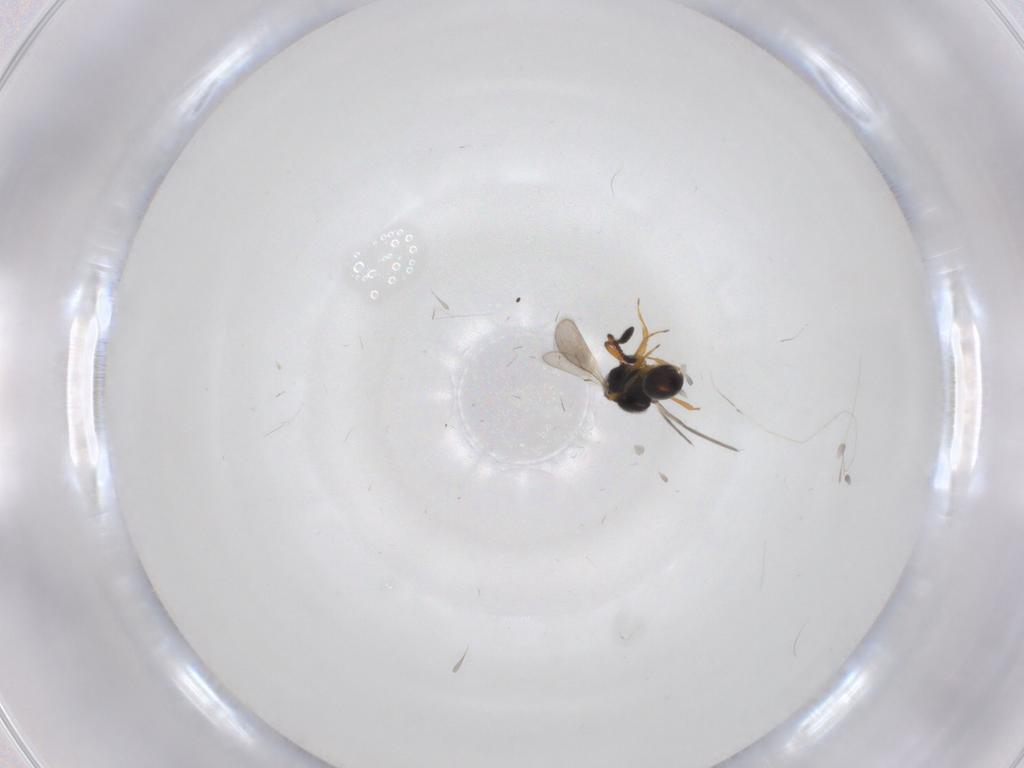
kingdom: Animalia
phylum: Arthropoda
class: Insecta
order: Hymenoptera
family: Scelionidae
